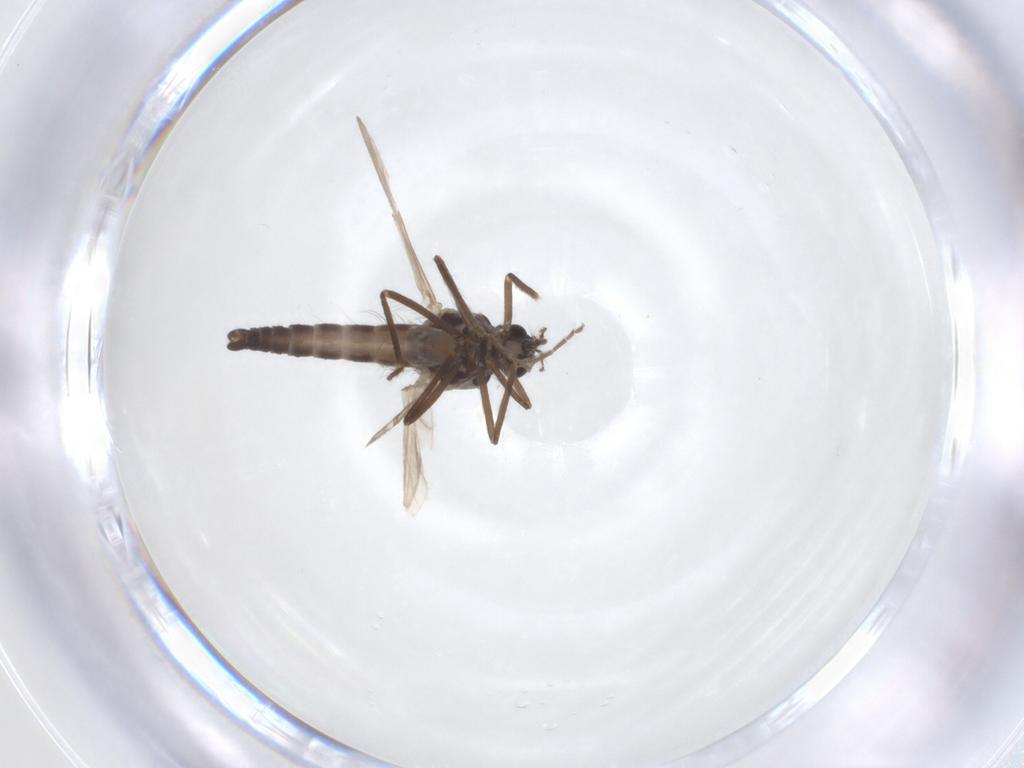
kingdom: Animalia
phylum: Arthropoda
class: Insecta
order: Diptera
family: Ceratopogonidae
